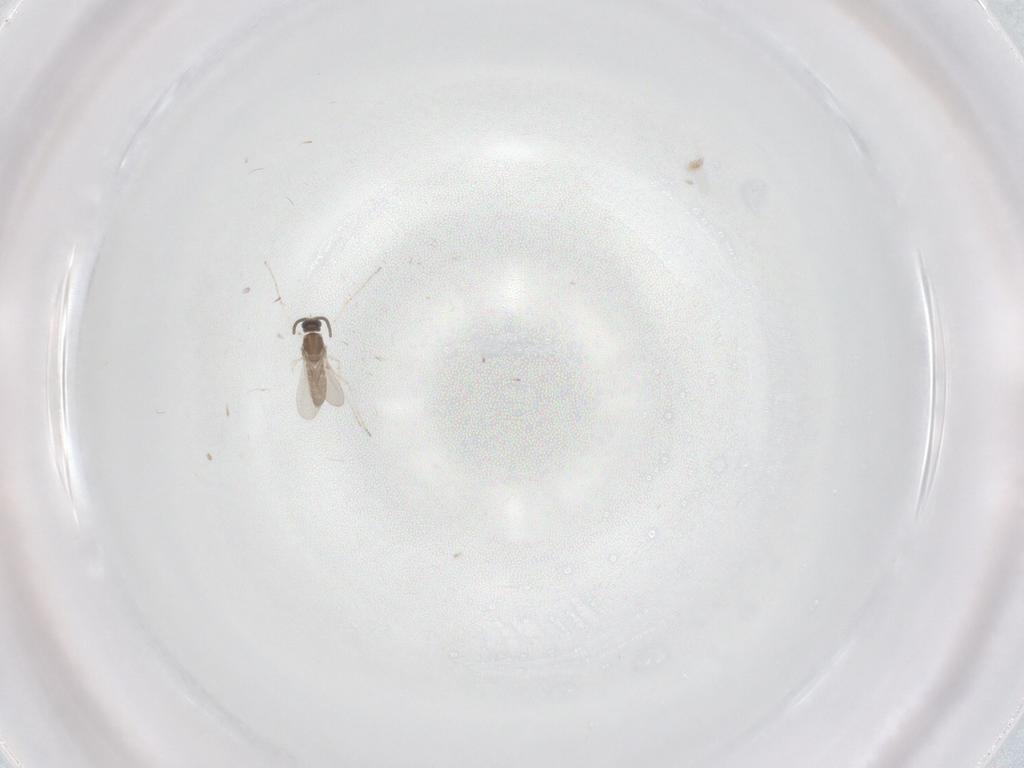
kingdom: Animalia
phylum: Arthropoda
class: Insecta
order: Diptera
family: Cecidomyiidae
